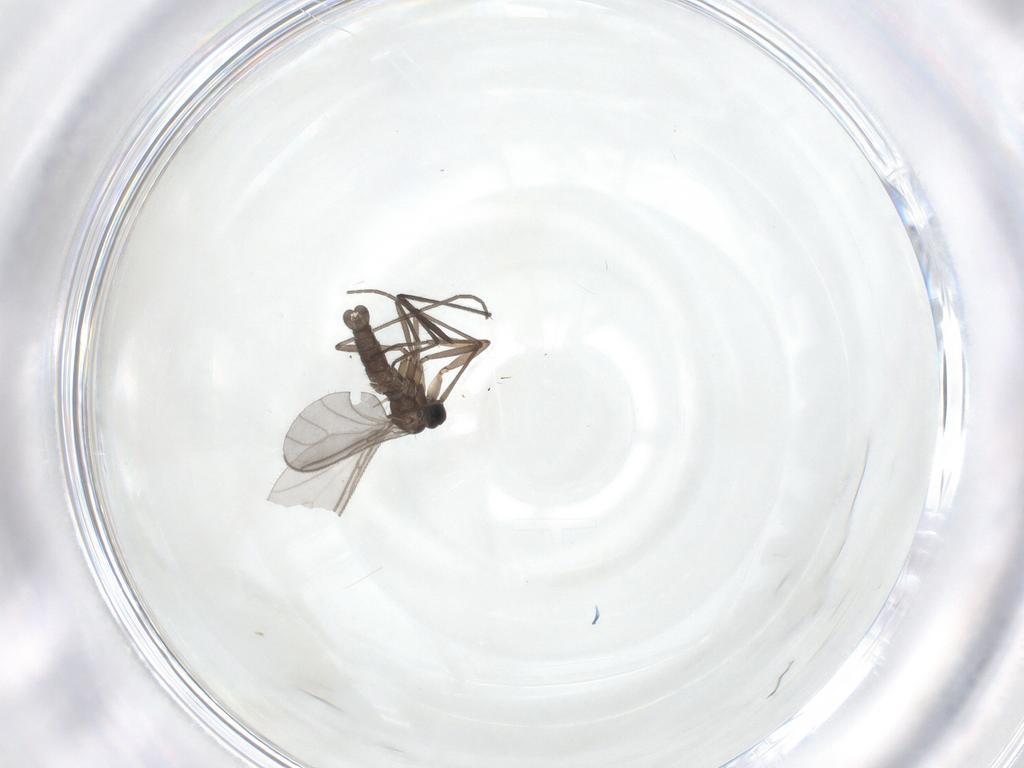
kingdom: Animalia
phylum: Arthropoda
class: Insecta
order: Diptera
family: Sciaridae
